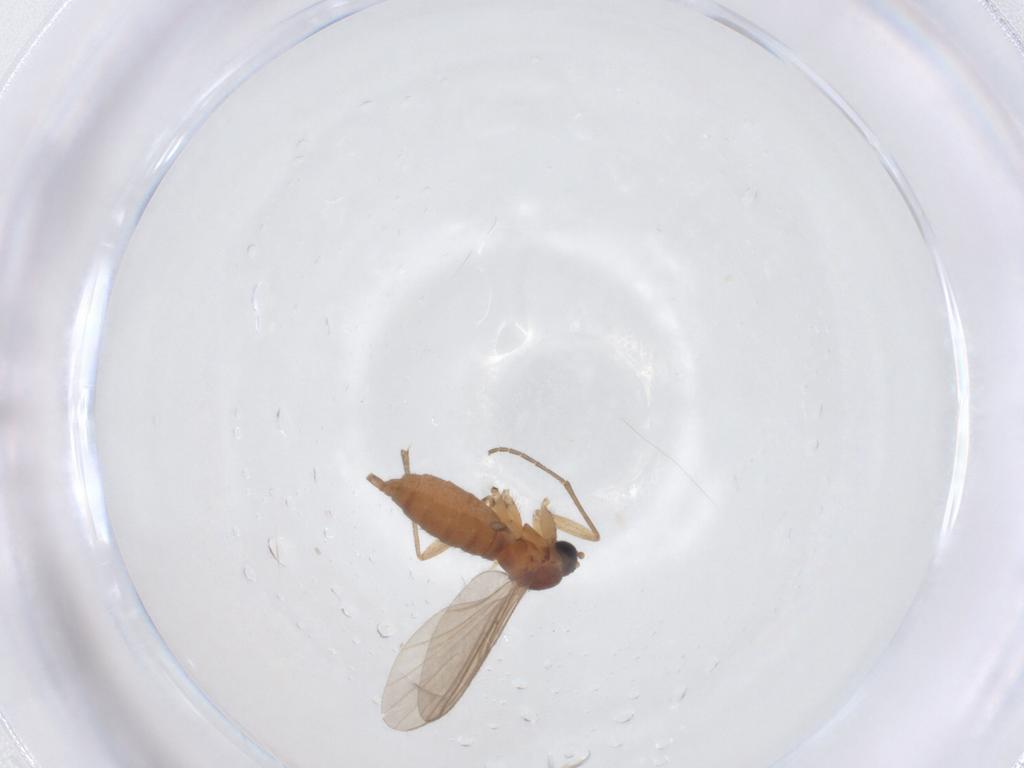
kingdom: Animalia
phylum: Arthropoda
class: Insecta
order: Diptera
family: Sciaridae
